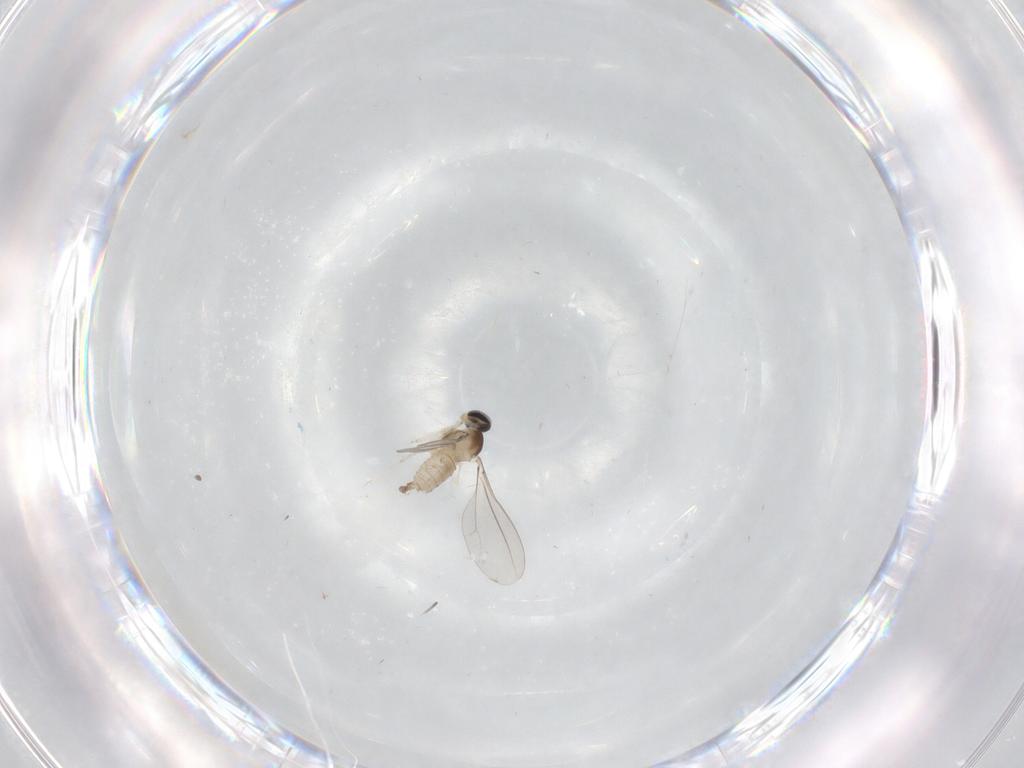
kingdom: Animalia
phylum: Arthropoda
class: Insecta
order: Diptera
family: Cecidomyiidae
